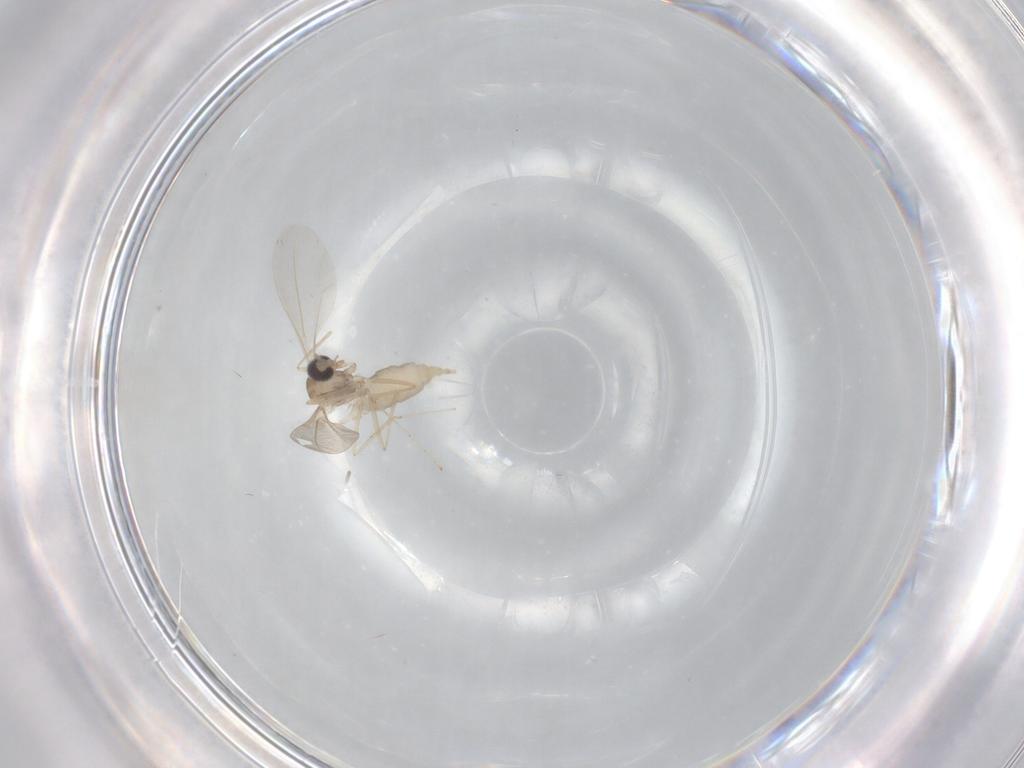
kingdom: Animalia
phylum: Arthropoda
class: Insecta
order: Diptera
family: Cecidomyiidae
